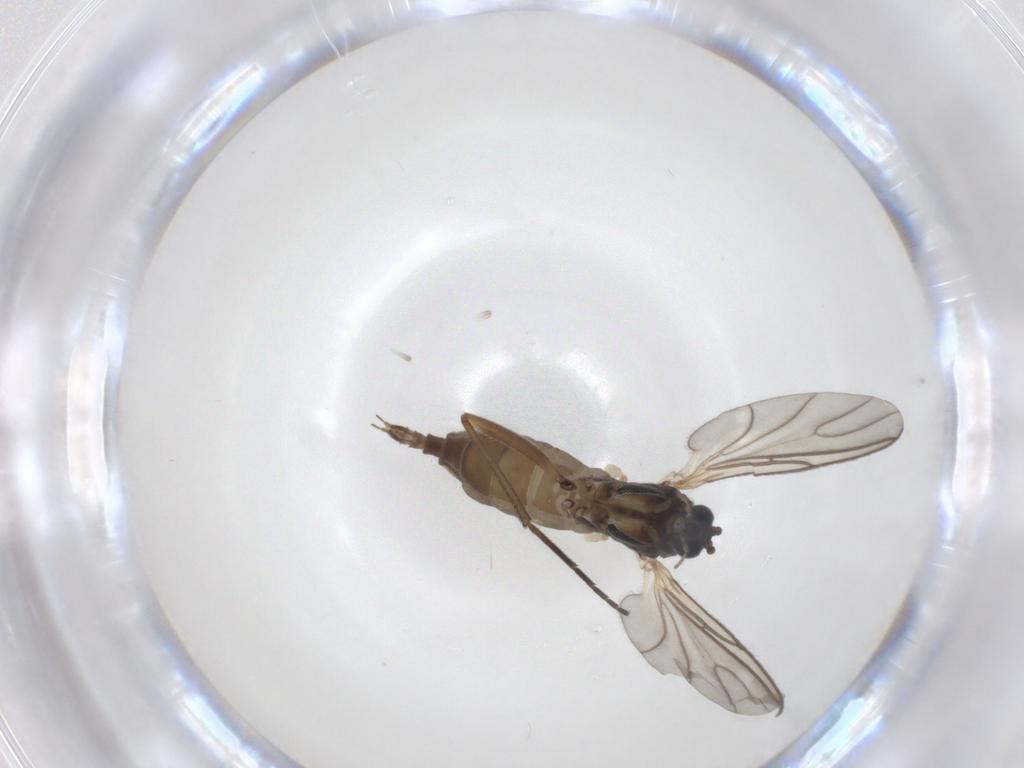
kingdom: Animalia
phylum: Arthropoda
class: Insecta
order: Diptera
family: Sciaridae
